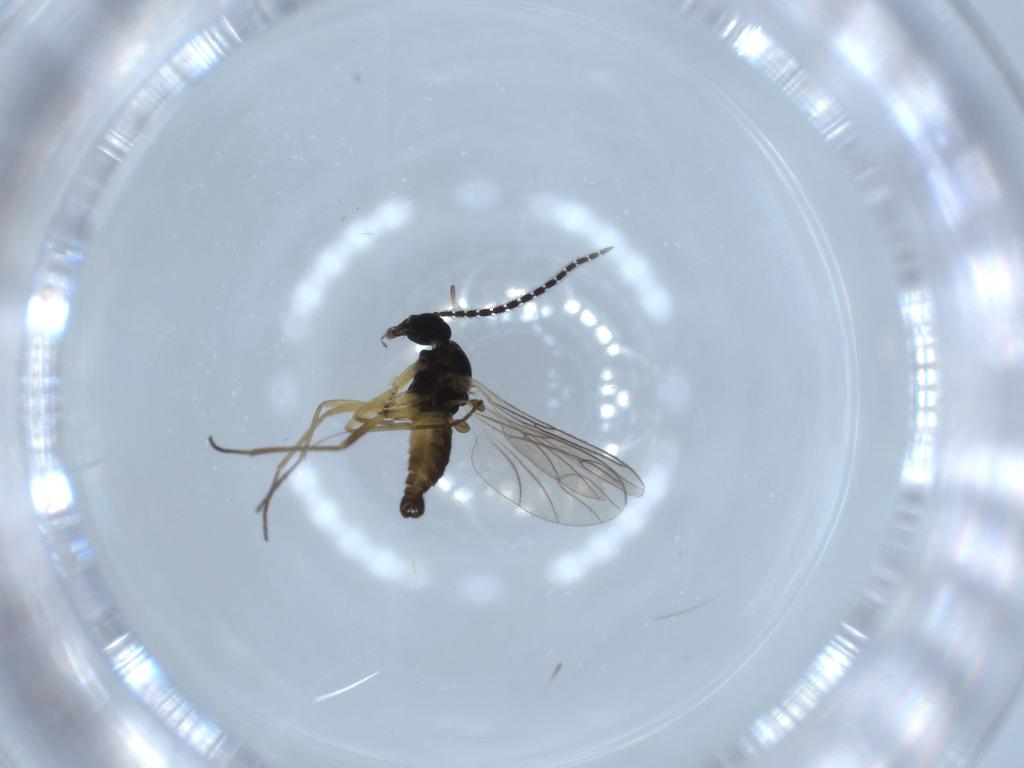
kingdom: Animalia
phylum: Arthropoda
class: Insecta
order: Diptera
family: Sciaridae
